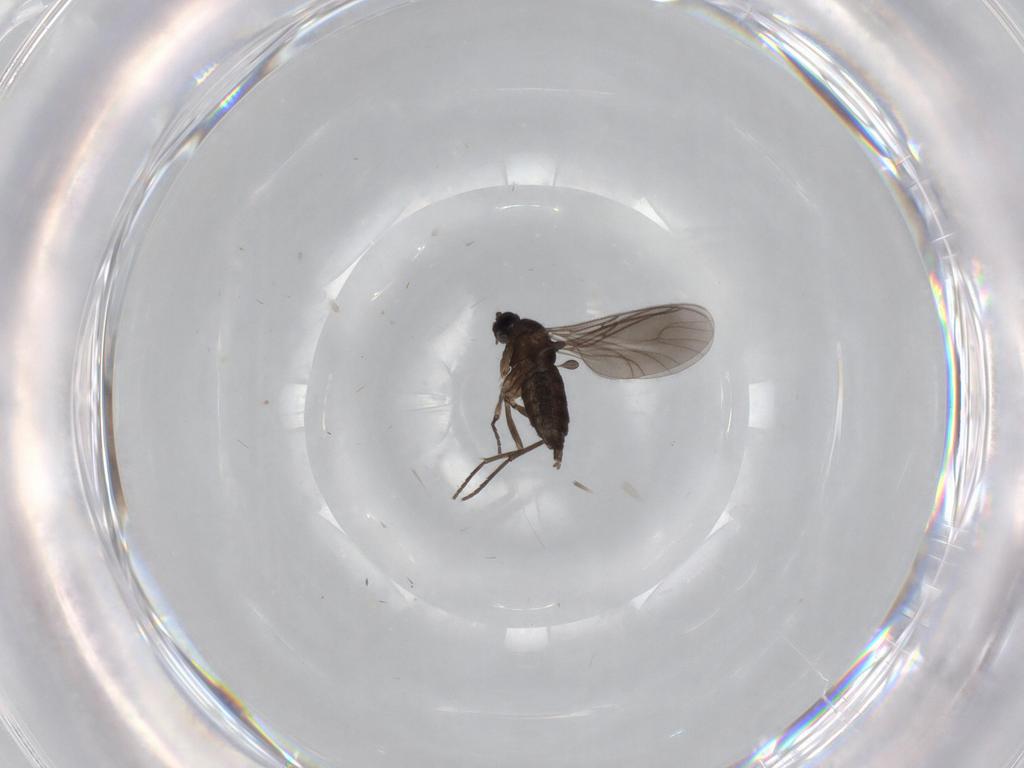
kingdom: Animalia
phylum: Arthropoda
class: Insecta
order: Diptera
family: Sciaridae
